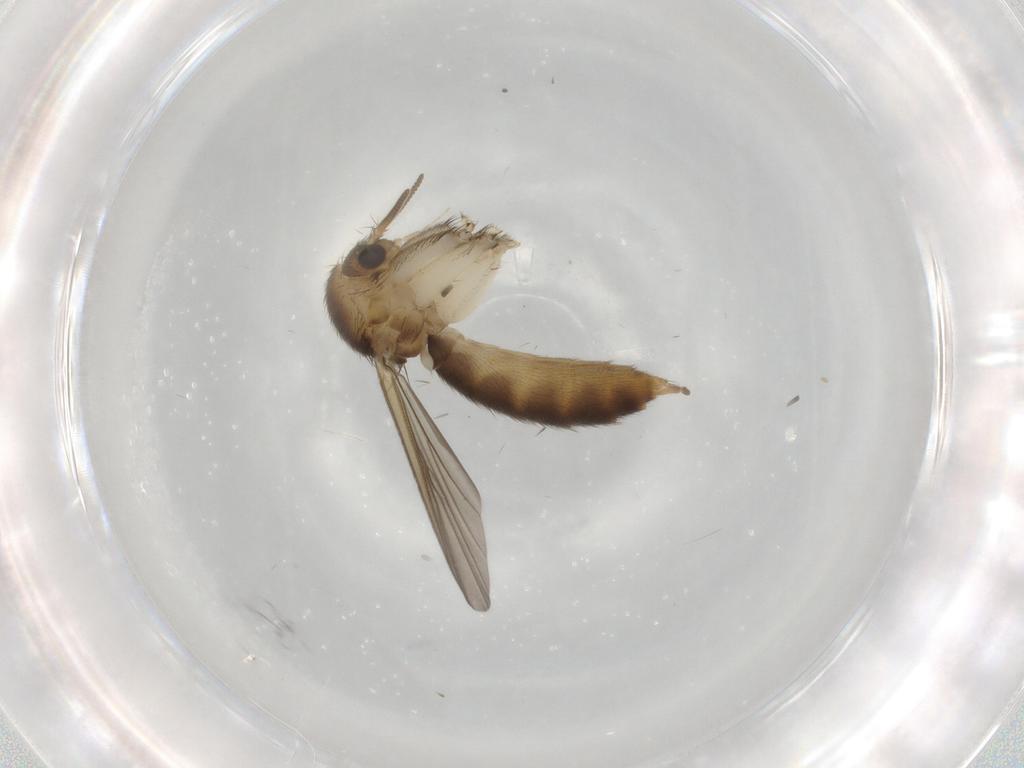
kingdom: Animalia
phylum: Arthropoda
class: Insecta
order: Diptera
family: Mycetophilidae
